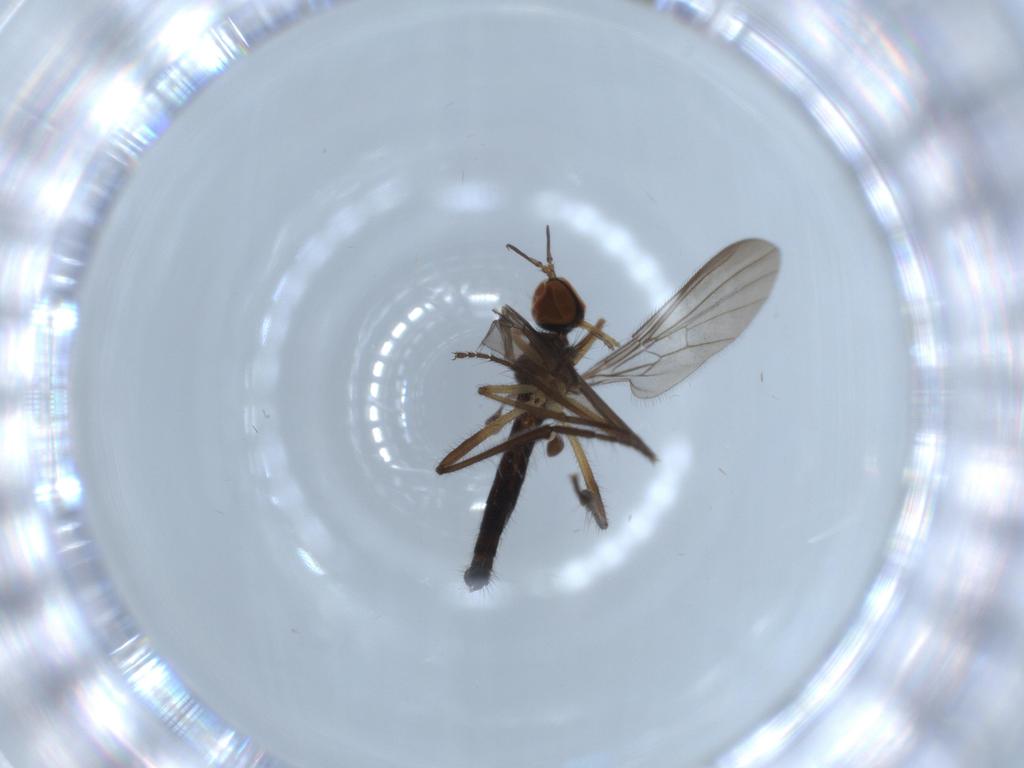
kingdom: Animalia
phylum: Arthropoda
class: Insecta
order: Diptera
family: Empididae
